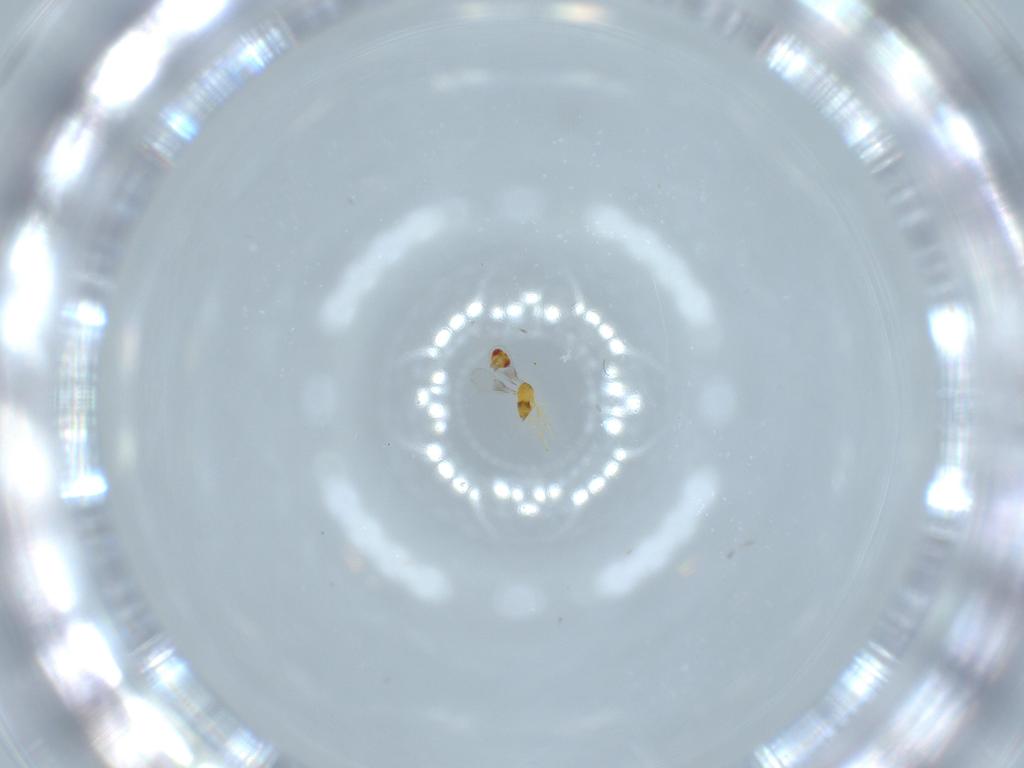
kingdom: Animalia
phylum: Arthropoda
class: Insecta
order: Hymenoptera
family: Trichogrammatidae
